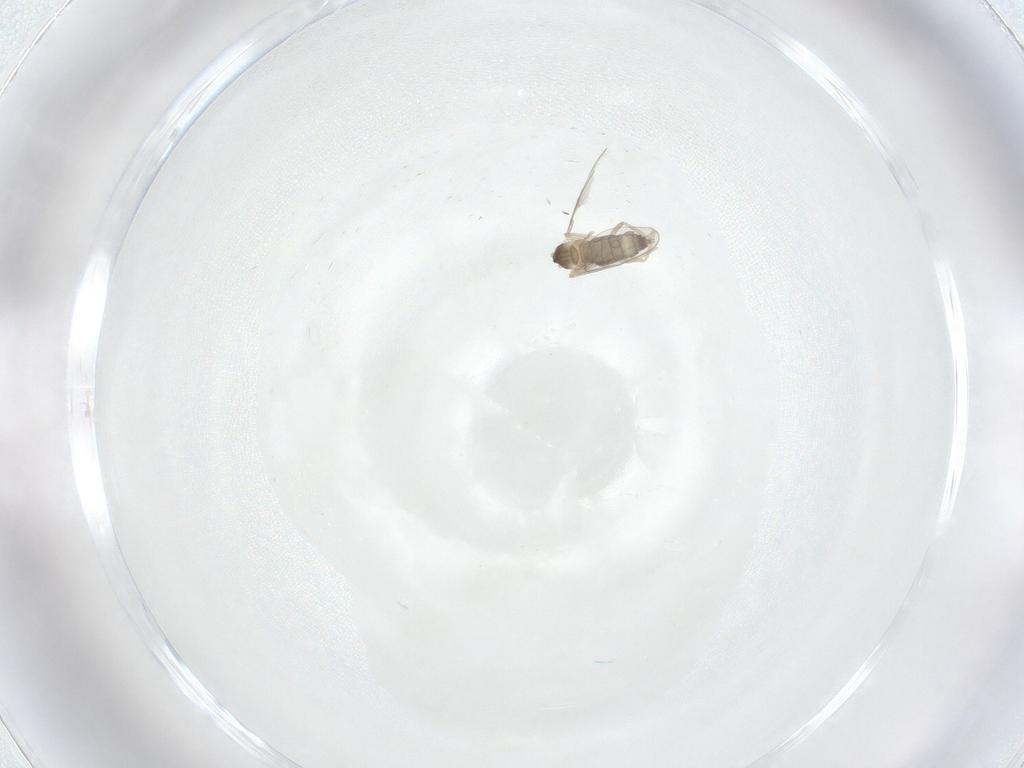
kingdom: Animalia
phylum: Arthropoda
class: Insecta
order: Diptera
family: Cecidomyiidae
